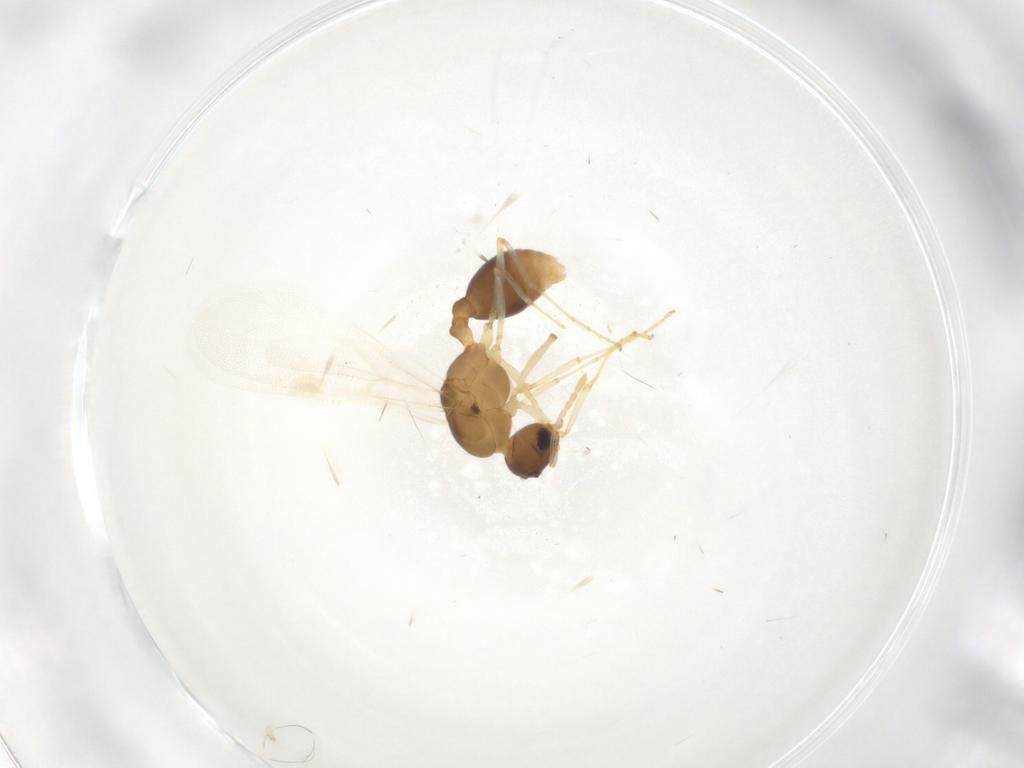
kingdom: Animalia
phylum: Arthropoda
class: Insecta
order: Hymenoptera
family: Formicidae
